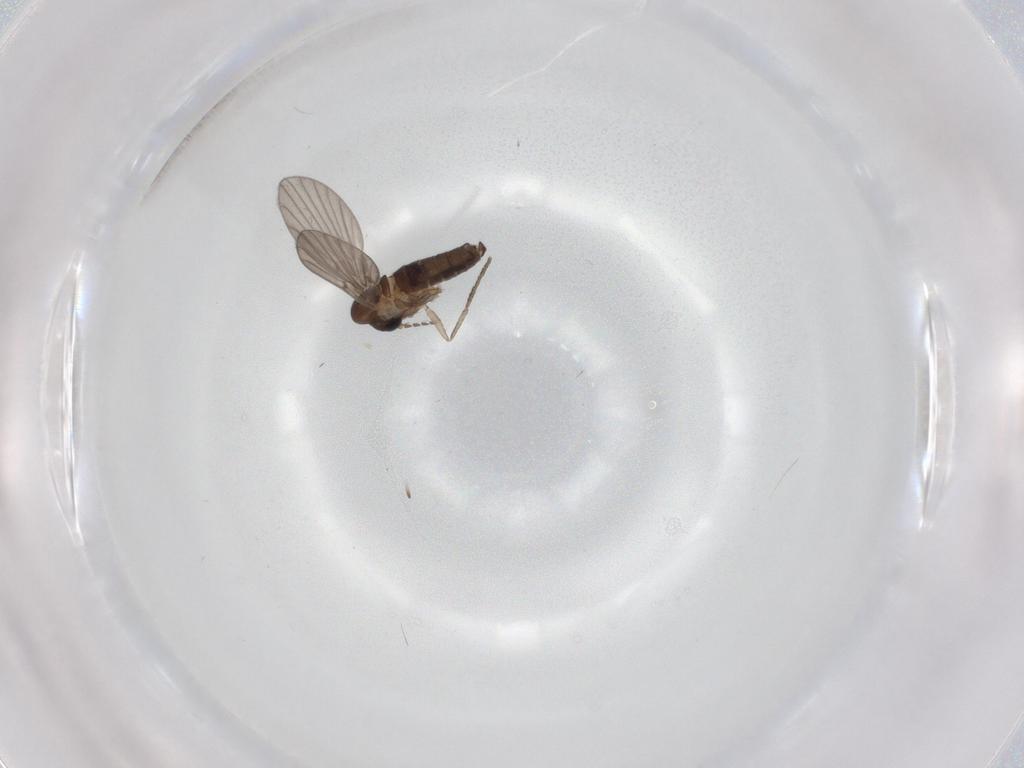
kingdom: Animalia
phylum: Arthropoda
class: Insecta
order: Diptera
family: Psychodidae
